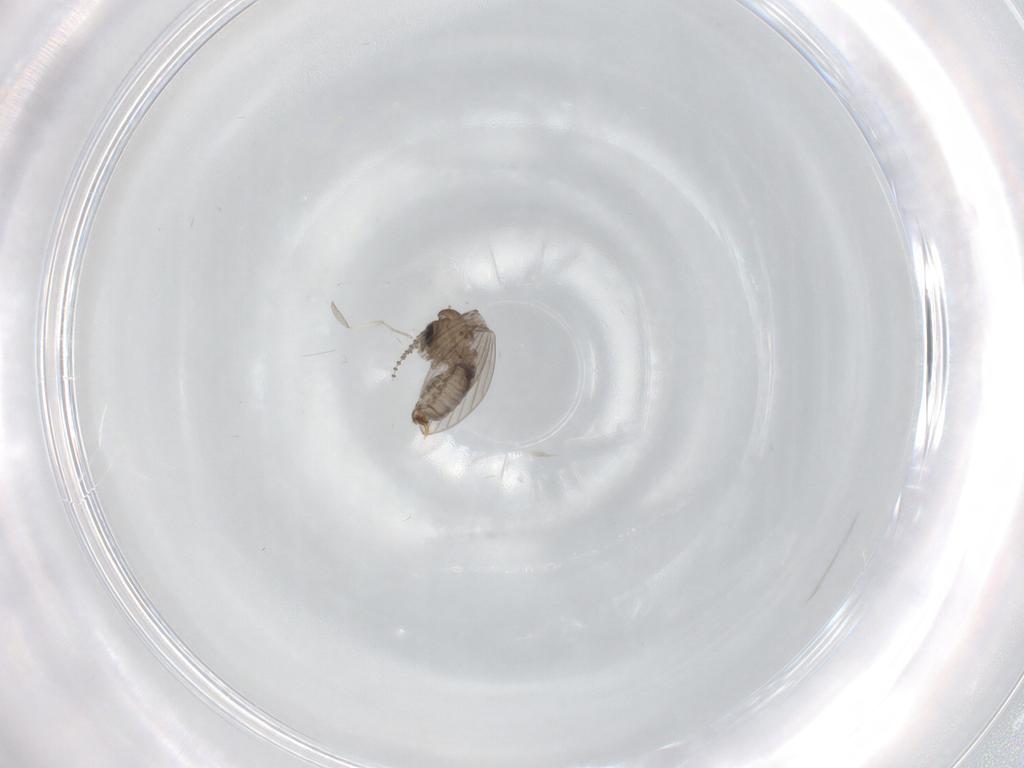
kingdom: Animalia
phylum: Arthropoda
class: Insecta
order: Diptera
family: Psychodidae
